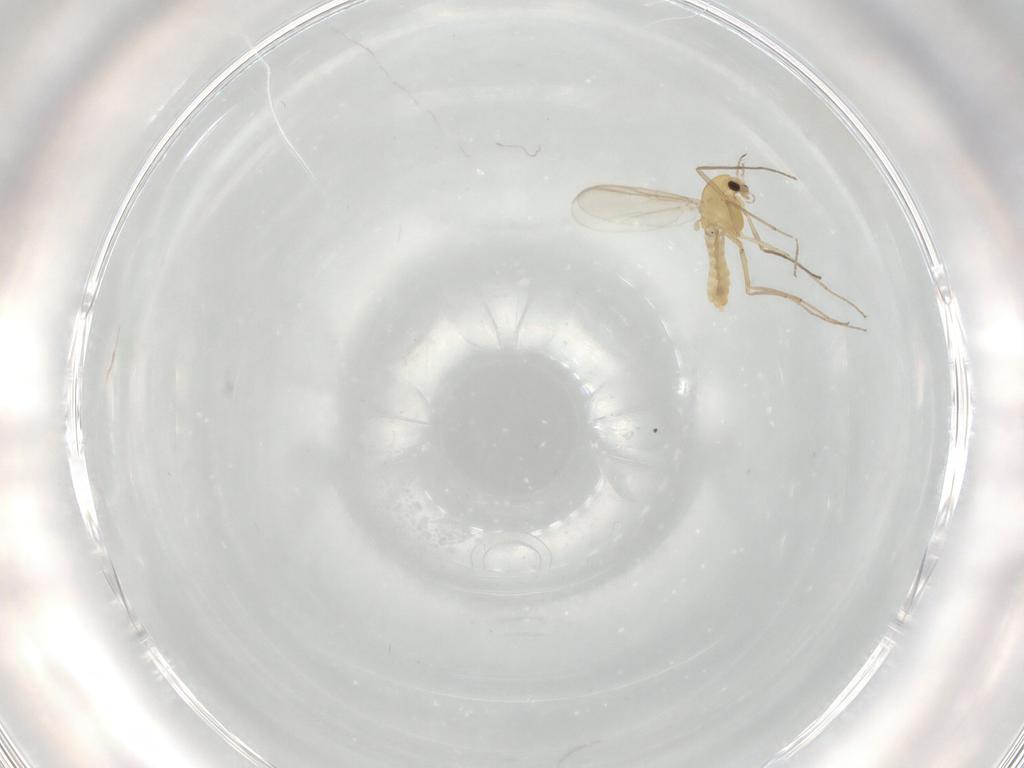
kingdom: Animalia
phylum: Arthropoda
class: Insecta
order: Diptera
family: Chironomidae
